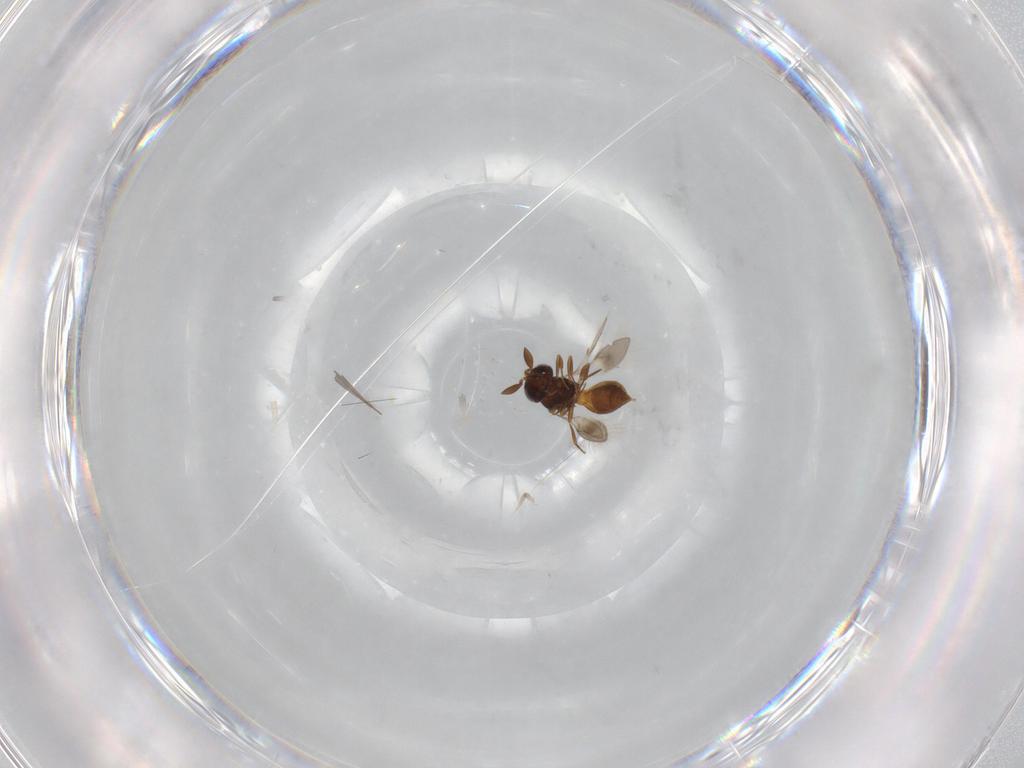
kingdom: Animalia
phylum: Arthropoda
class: Insecta
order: Hymenoptera
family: Scelionidae
